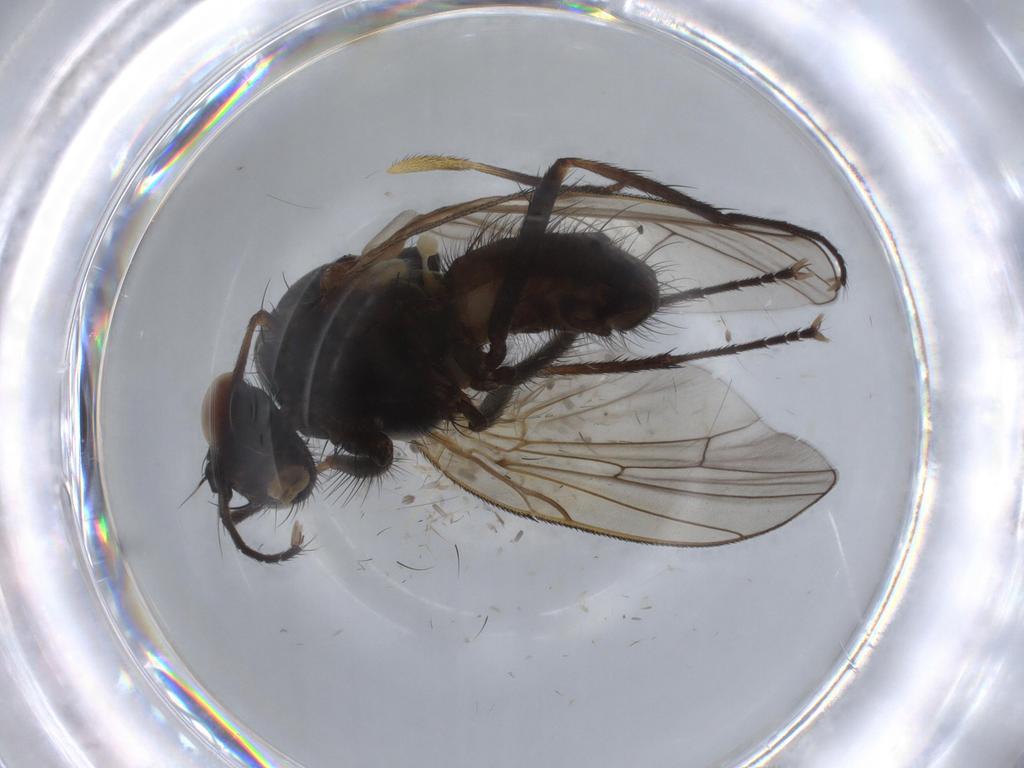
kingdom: Animalia
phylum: Arthropoda
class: Insecta
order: Diptera
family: Anthomyiidae
